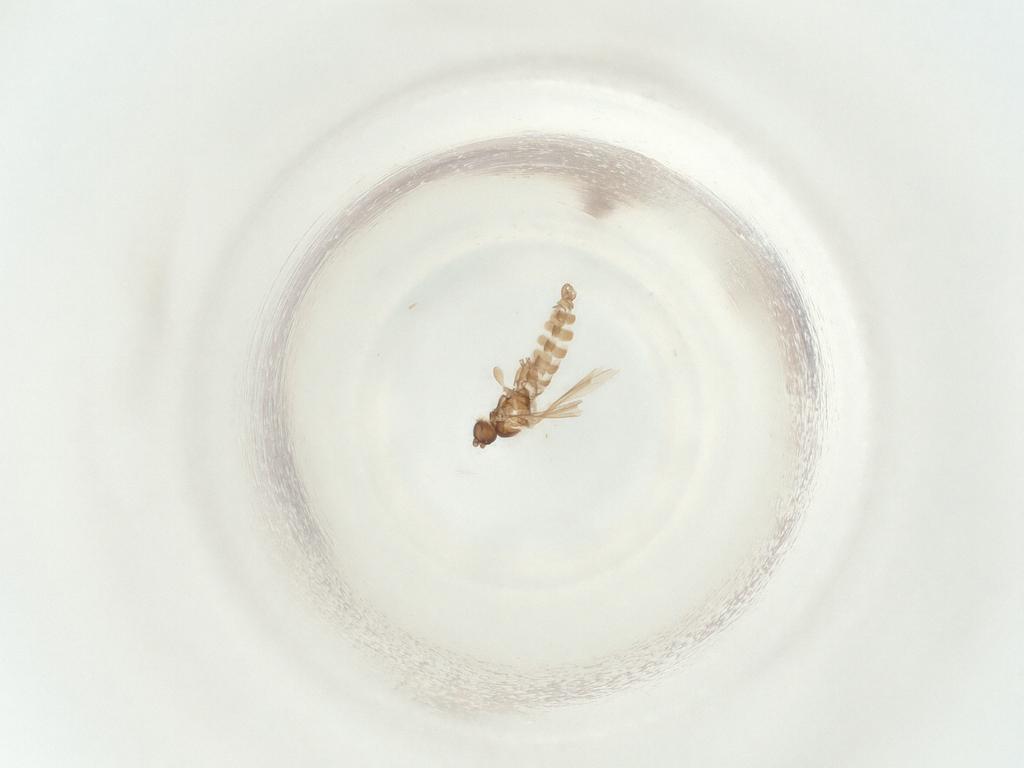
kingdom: Animalia
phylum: Arthropoda
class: Insecta
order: Diptera
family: Sciaridae
